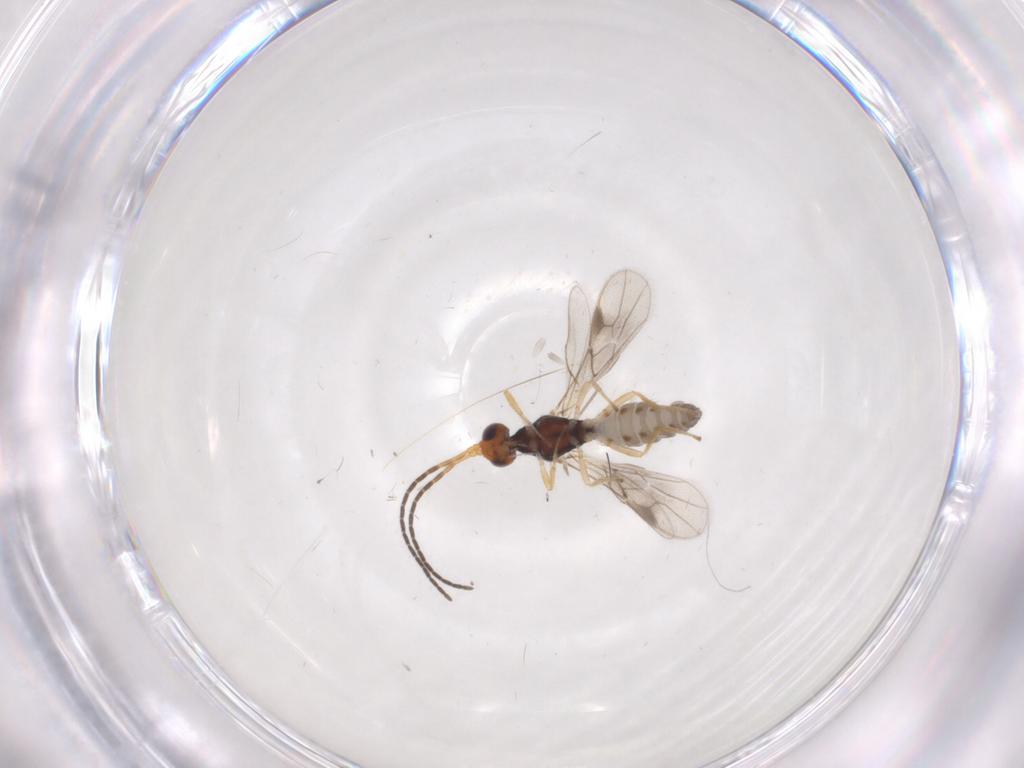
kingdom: Animalia
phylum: Arthropoda
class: Insecta
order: Hymenoptera
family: Braconidae
